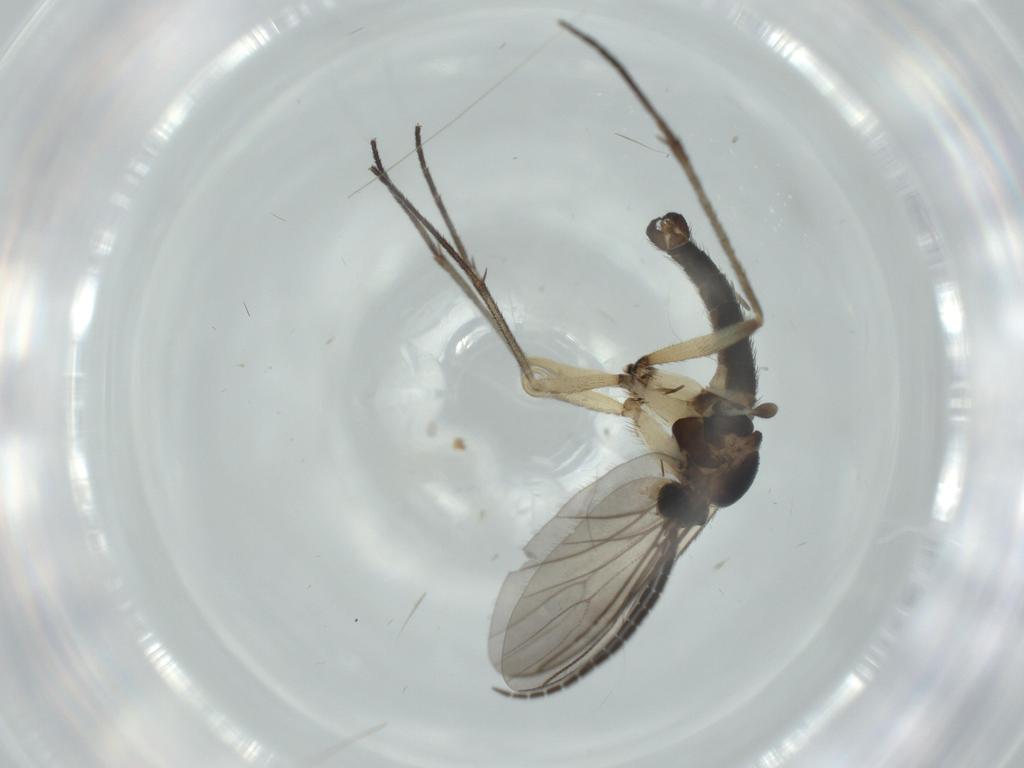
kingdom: Animalia
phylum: Arthropoda
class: Insecta
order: Diptera
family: Sciaridae
